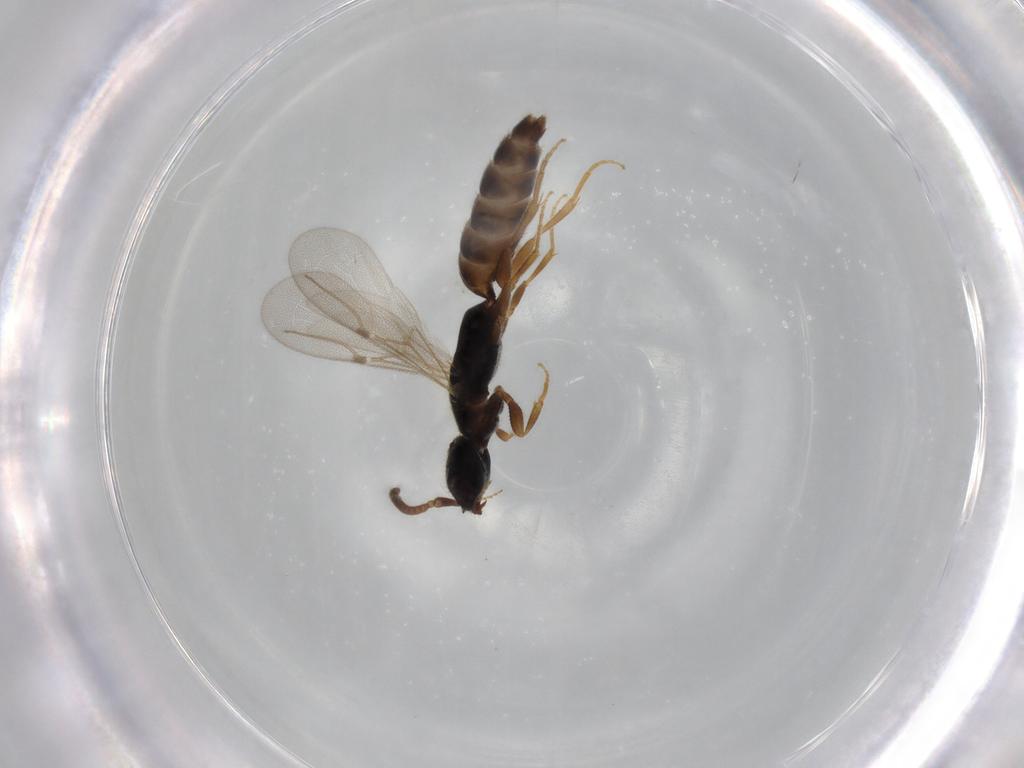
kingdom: Animalia
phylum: Arthropoda
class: Insecta
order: Hymenoptera
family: Bethylidae
